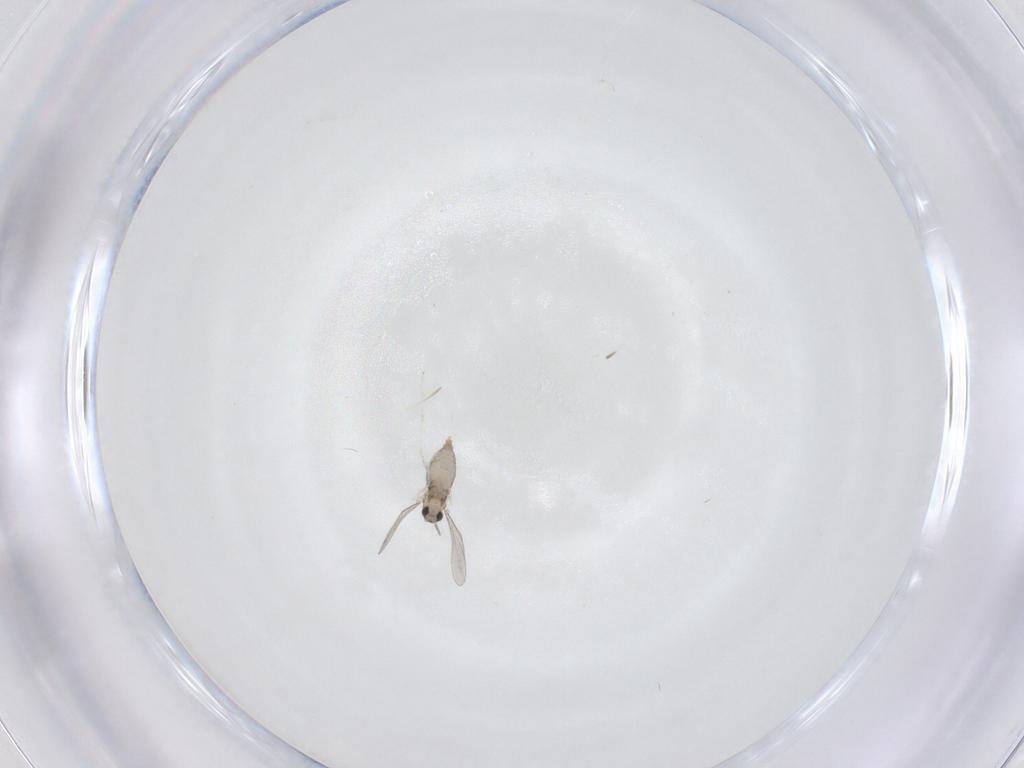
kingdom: Animalia
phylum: Arthropoda
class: Insecta
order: Diptera
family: Cecidomyiidae
